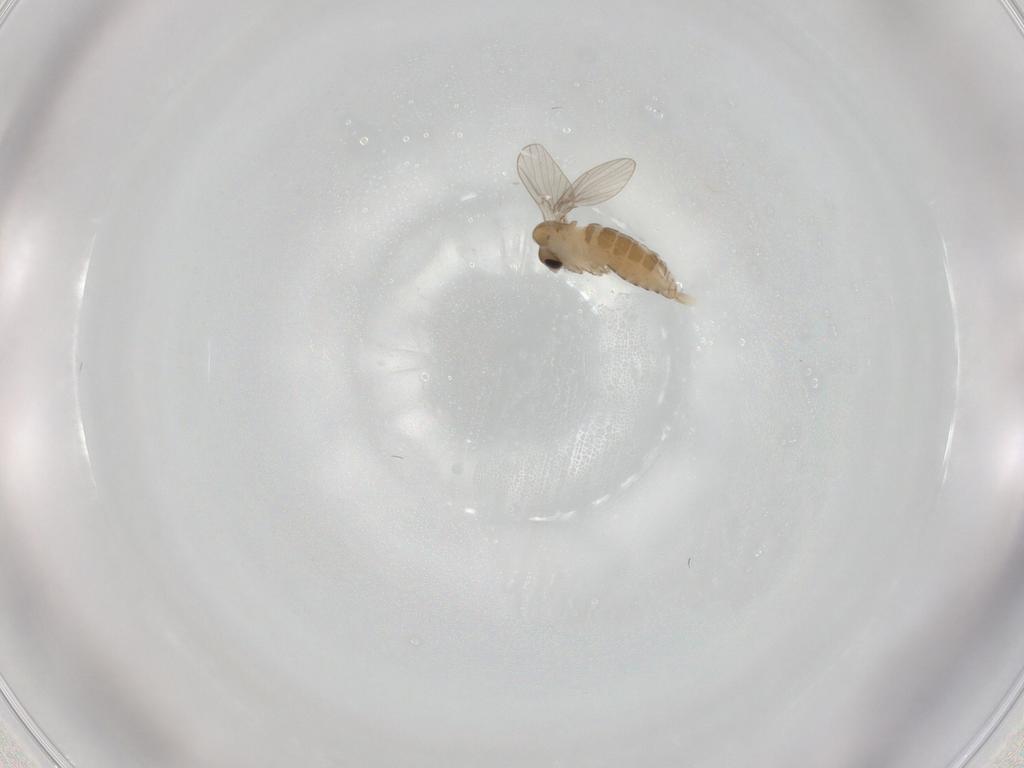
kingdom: Animalia
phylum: Arthropoda
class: Insecta
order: Diptera
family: Psychodidae
